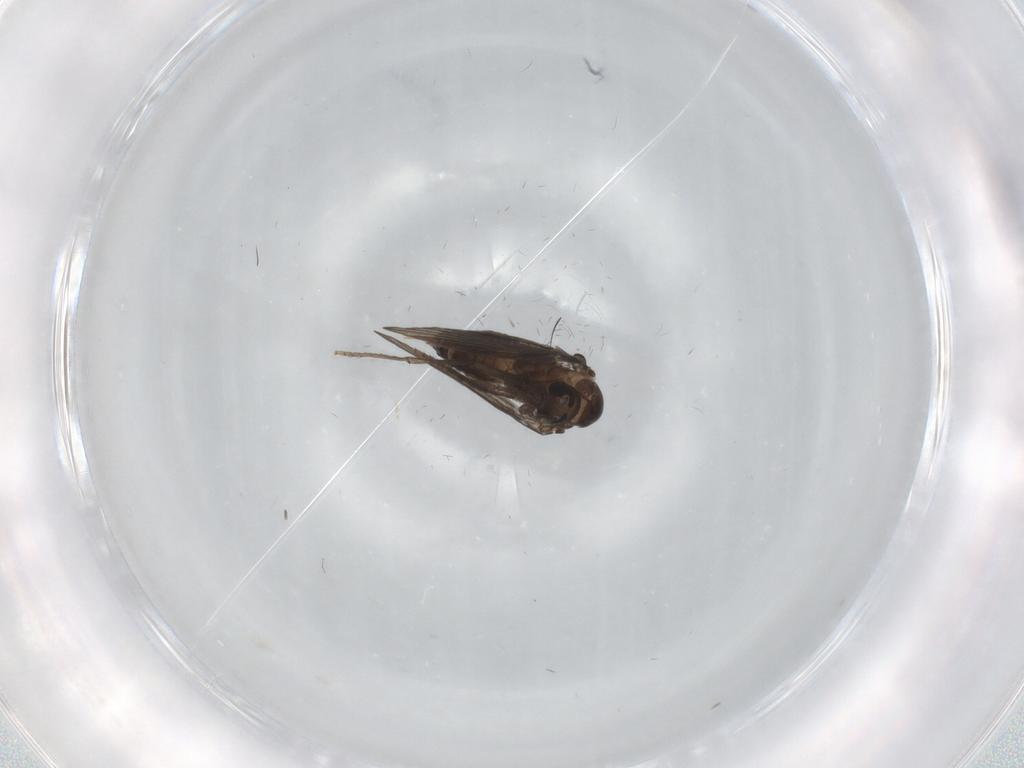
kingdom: Animalia
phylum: Arthropoda
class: Insecta
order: Diptera
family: Psychodidae
